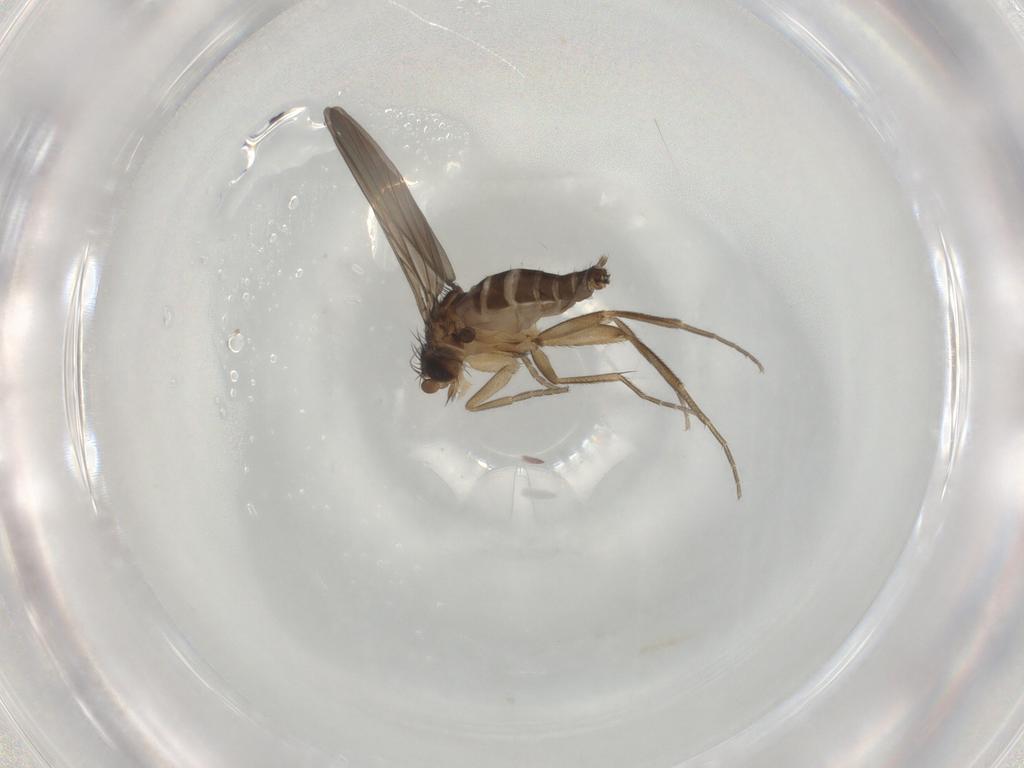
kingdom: Animalia
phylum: Arthropoda
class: Insecta
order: Diptera
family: Phoridae
